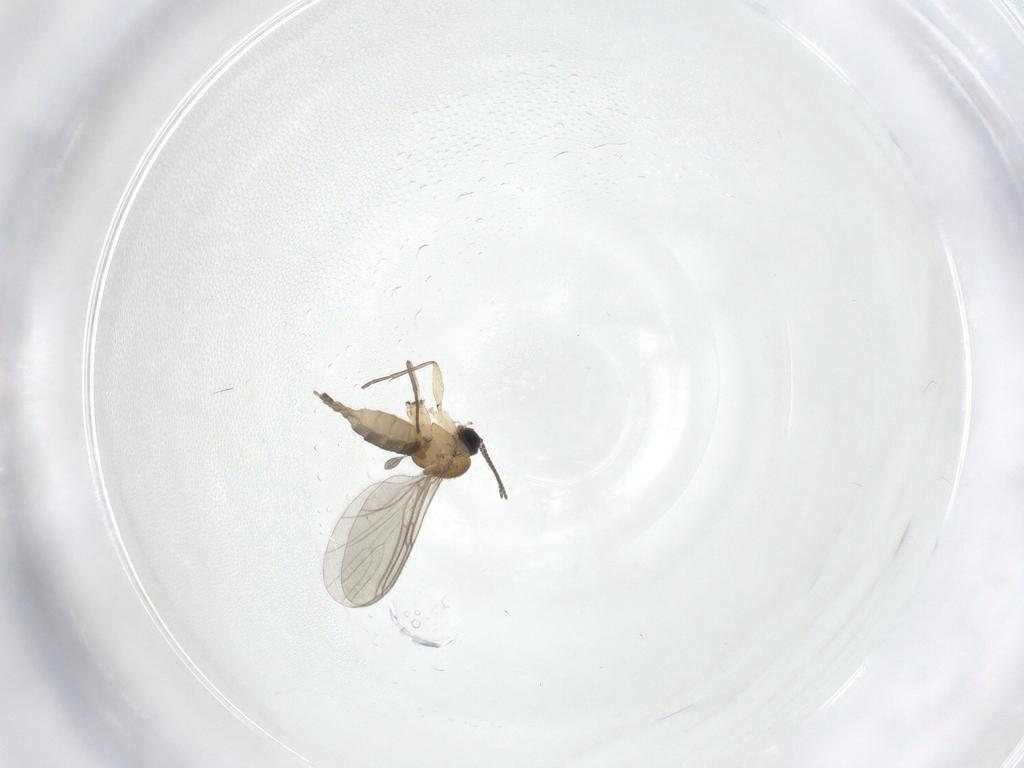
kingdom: Animalia
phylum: Arthropoda
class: Insecta
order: Diptera
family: Sciaridae
